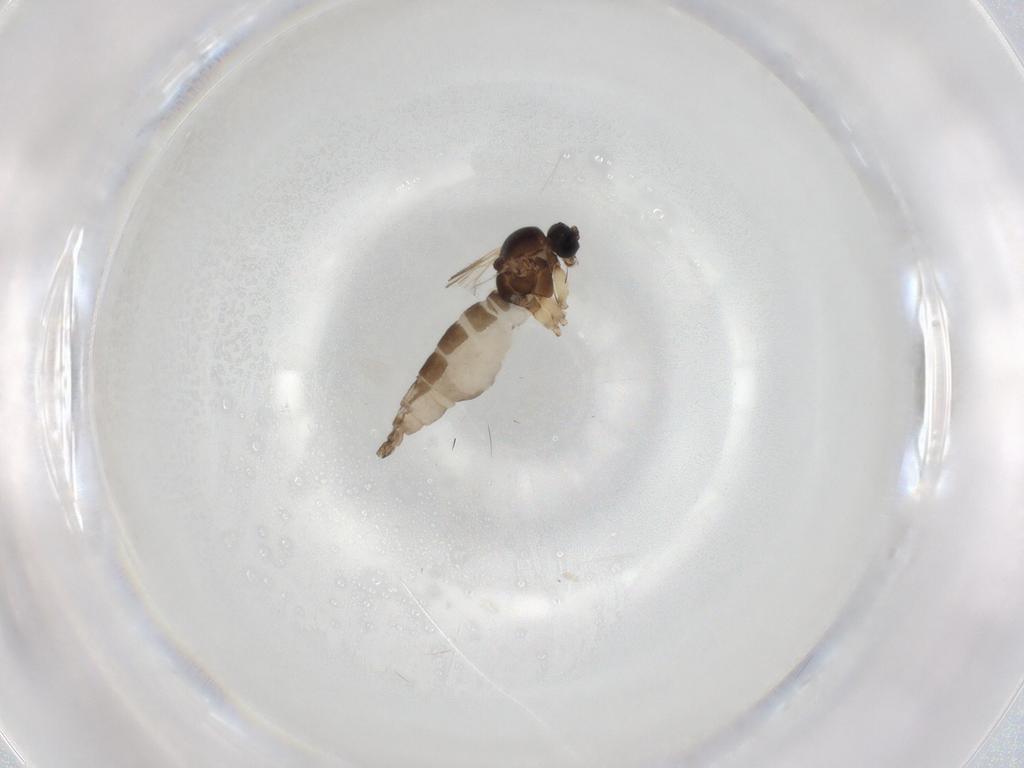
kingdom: Animalia
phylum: Arthropoda
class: Insecta
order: Diptera
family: Sciaridae
